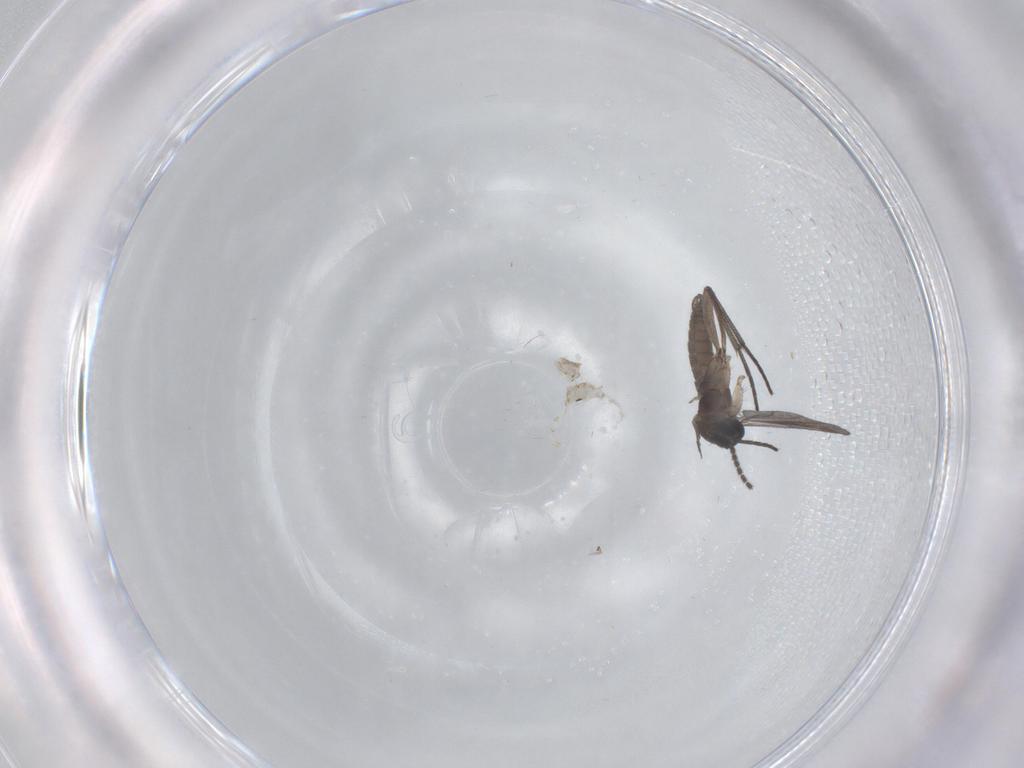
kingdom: Animalia
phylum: Arthropoda
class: Insecta
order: Diptera
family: Sciaridae
